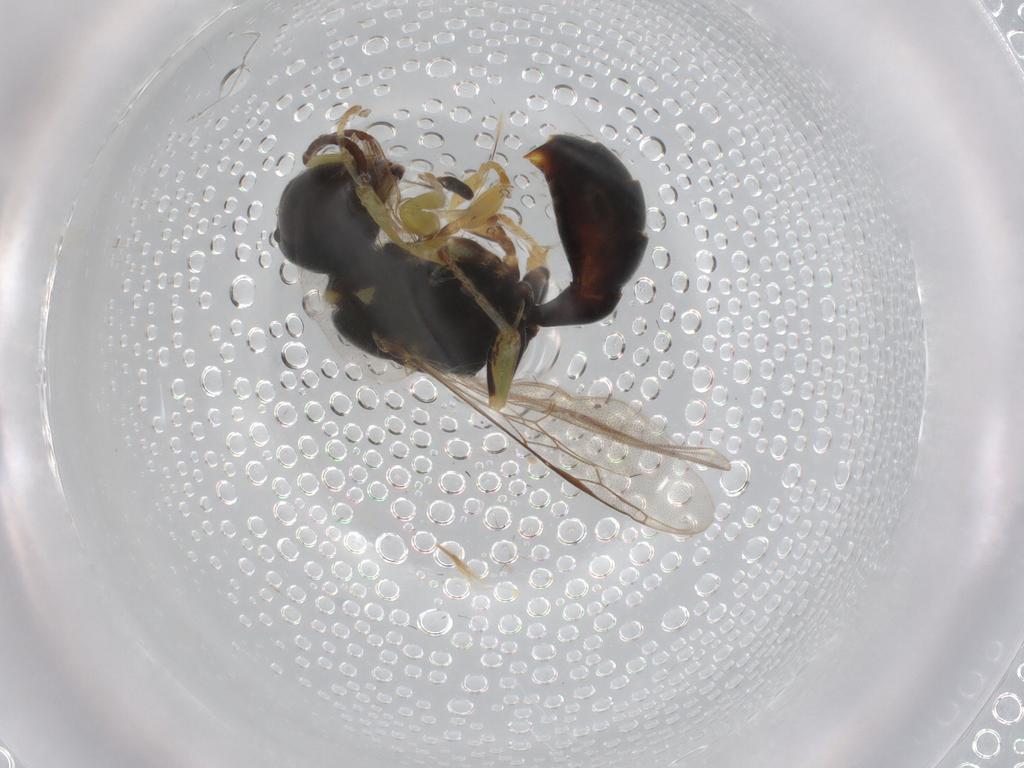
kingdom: Animalia
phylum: Arthropoda
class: Insecta
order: Hymenoptera
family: Crabronidae
